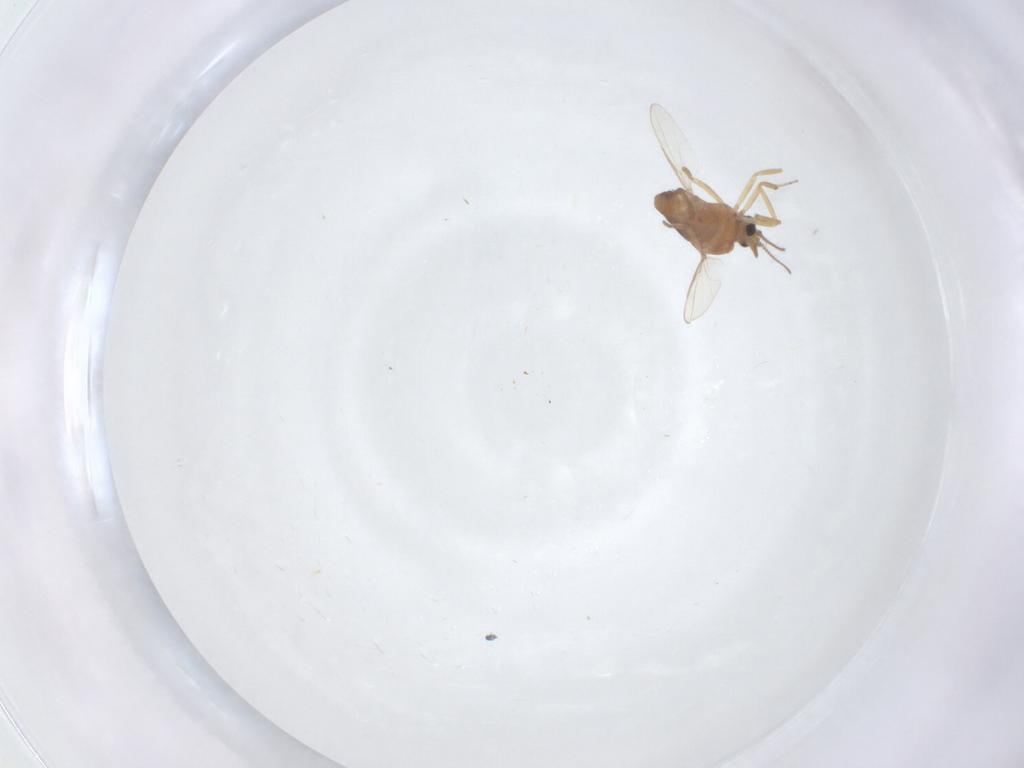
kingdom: Animalia
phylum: Arthropoda
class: Insecta
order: Diptera
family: Ceratopogonidae
